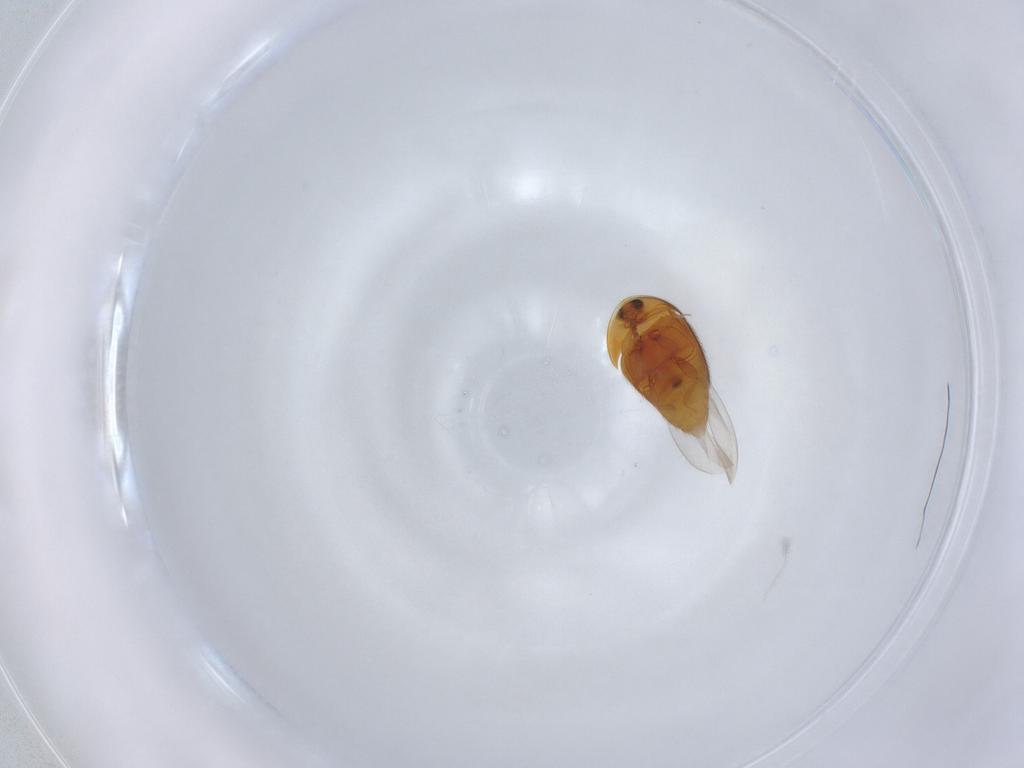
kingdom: Animalia
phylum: Arthropoda
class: Insecta
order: Coleoptera
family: Corylophidae
